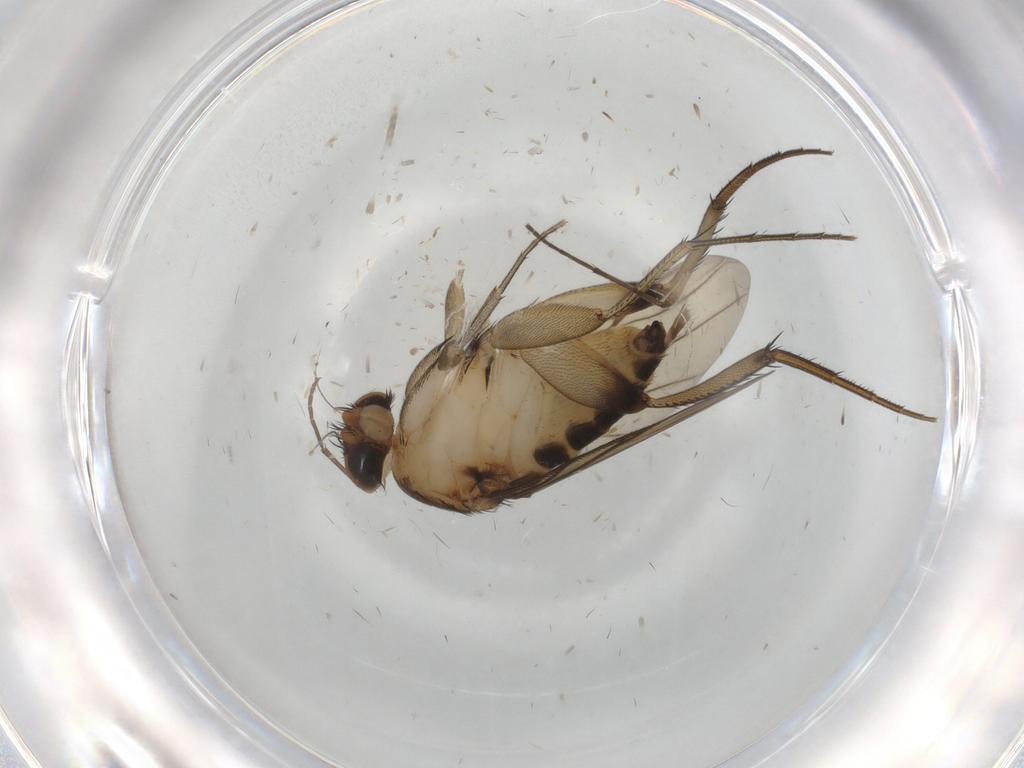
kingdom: Animalia
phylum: Arthropoda
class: Insecta
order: Diptera
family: Phoridae
